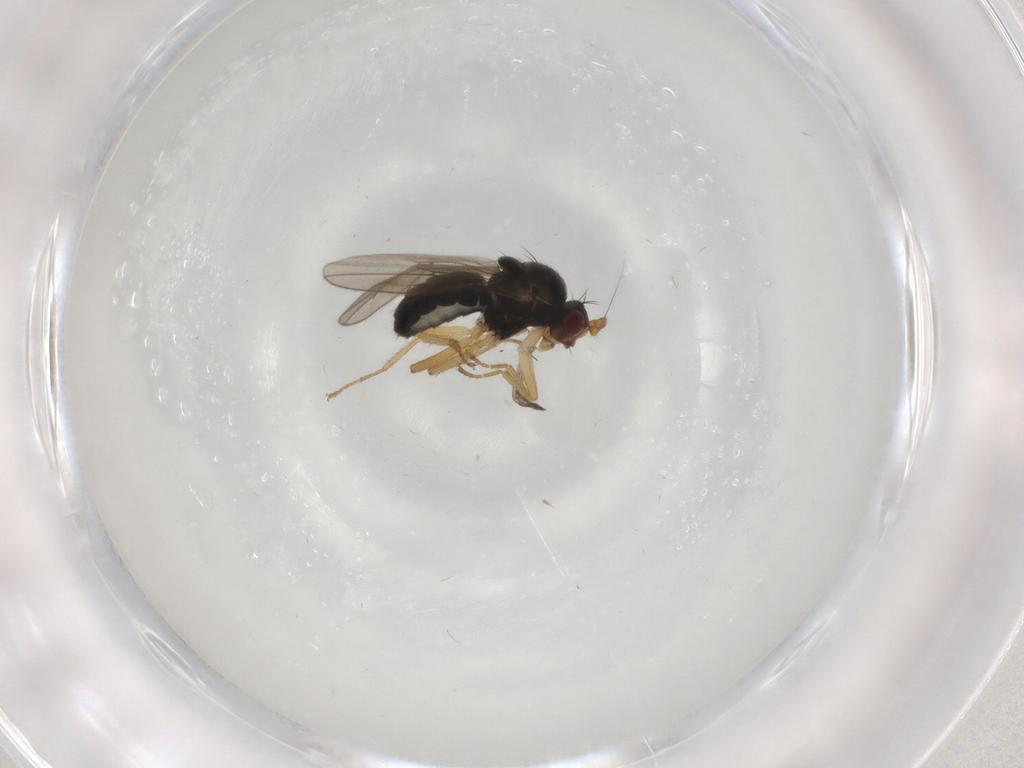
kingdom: Animalia
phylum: Arthropoda
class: Insecta
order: Diptera
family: Sphaeroceridae
